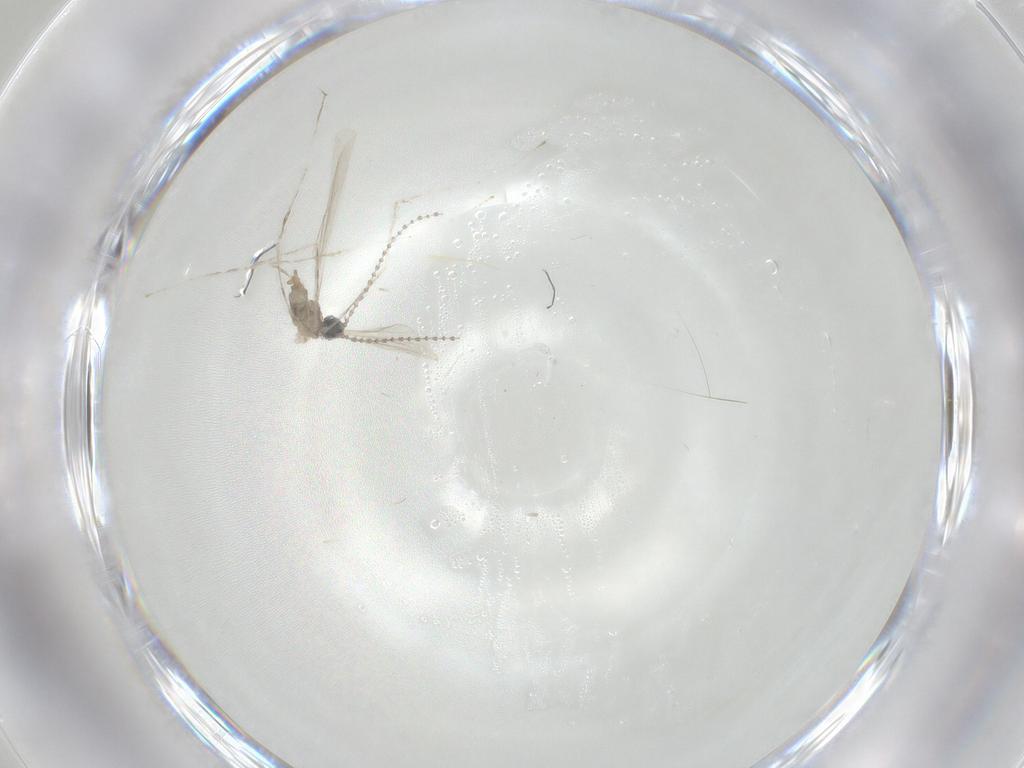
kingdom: Animalia
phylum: Arthropoda
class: Insecta
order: Diptera
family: Cecidomyiidae
